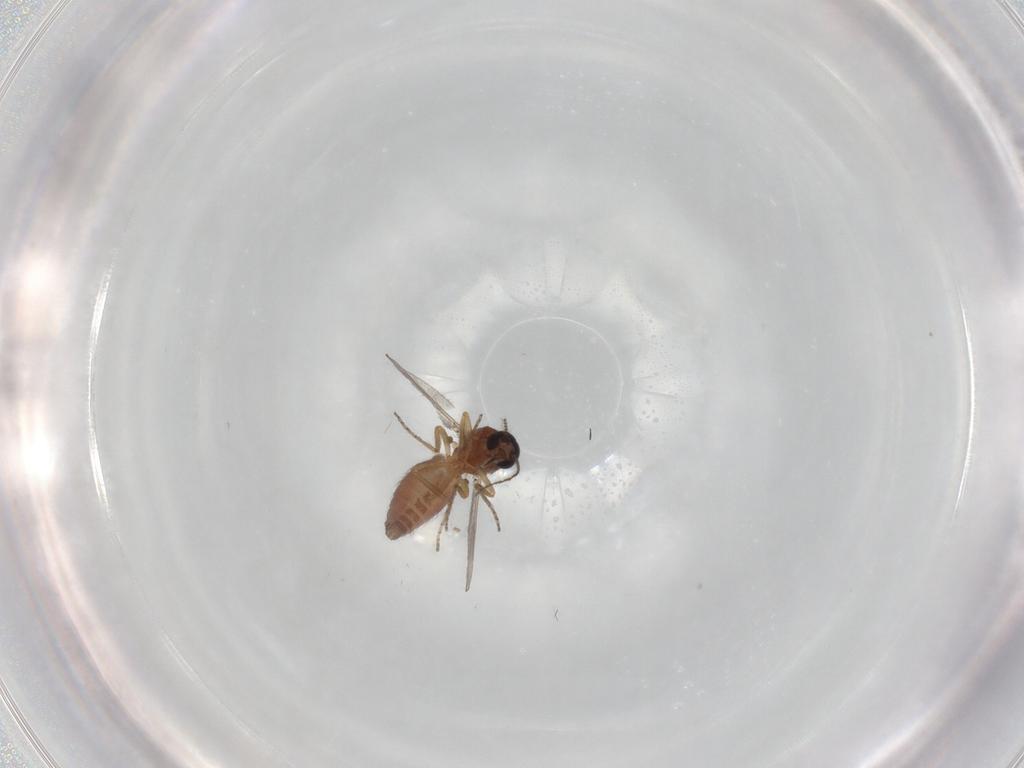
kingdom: Animalia
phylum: Arthropoda
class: Insecta
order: Diptera
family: Ceratopogonidae
